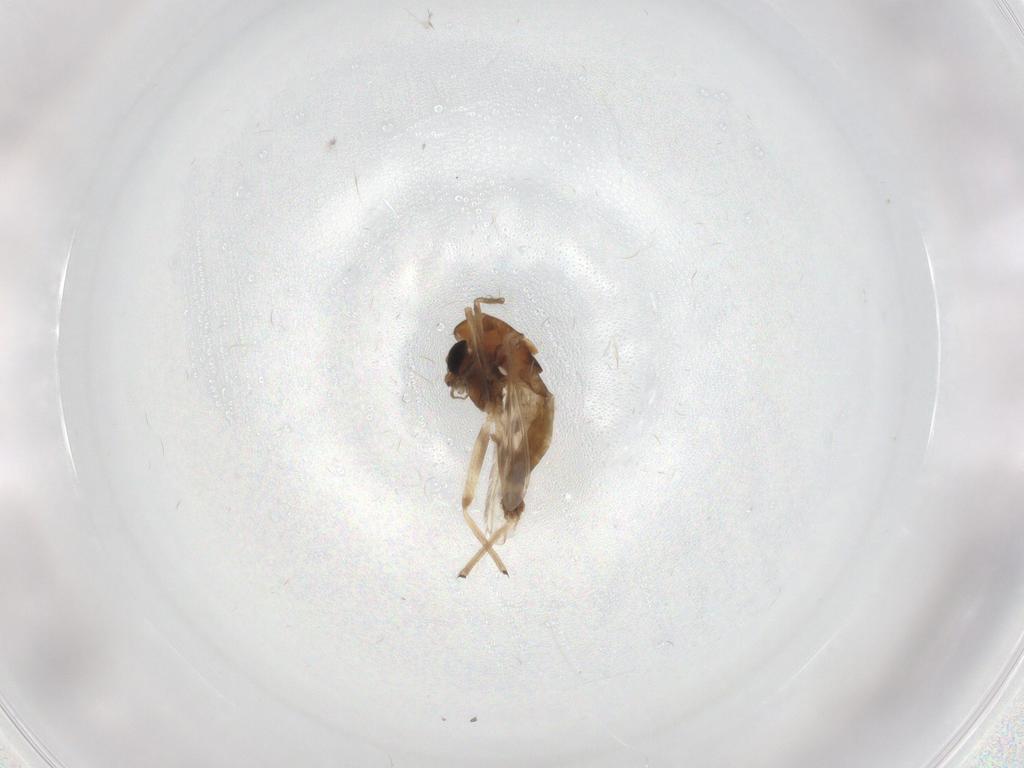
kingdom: Animalia
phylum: Arthropoda
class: Insecta
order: Diptera
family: Chironomidae
